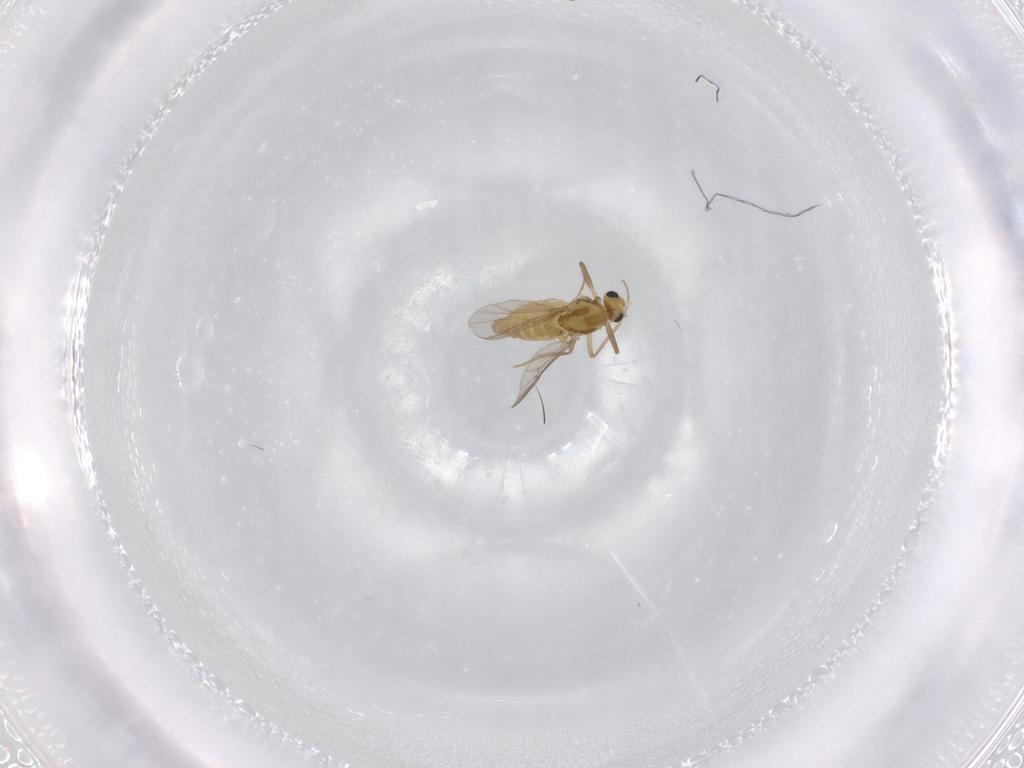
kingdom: Animalia
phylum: Arthropoda
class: Insecta
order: Diptera
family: Chironomidae
